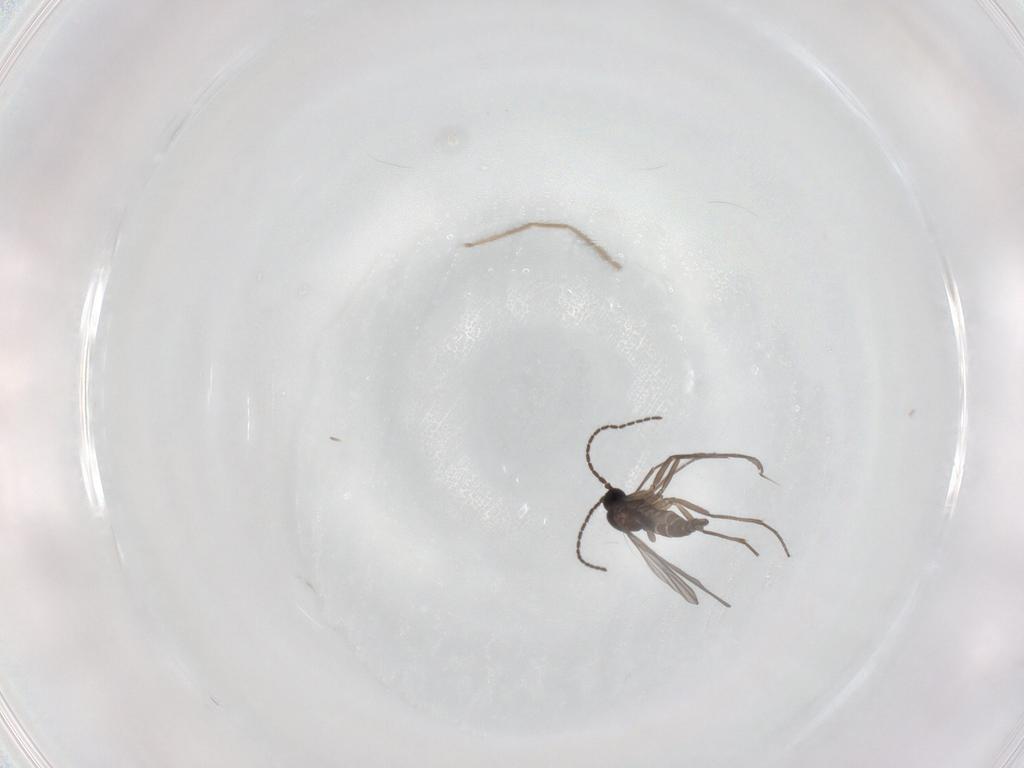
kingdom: Animalia
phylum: Arthropoda
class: Insecta
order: Diptera
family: Sciaridae
